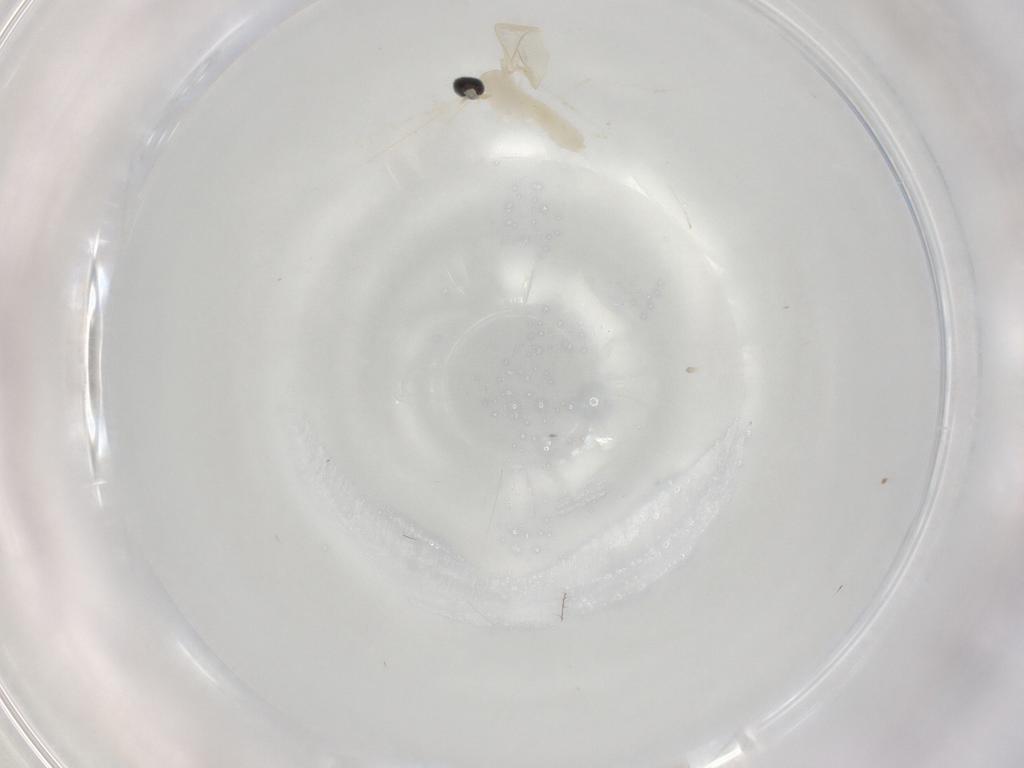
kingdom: Animalia
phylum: Arthropoda
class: Insecta
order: Diptera
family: Cecidomyiidae
